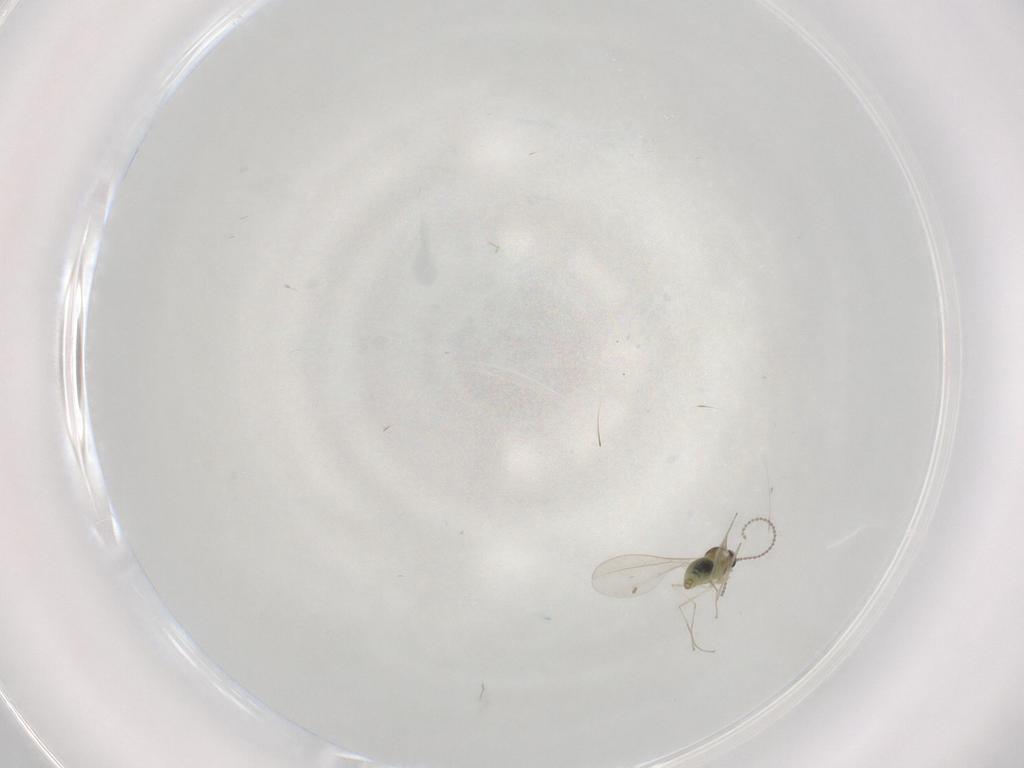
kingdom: Animalia
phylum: Arthropoda
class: Insecta
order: Diptera
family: Cecidomyiidae
